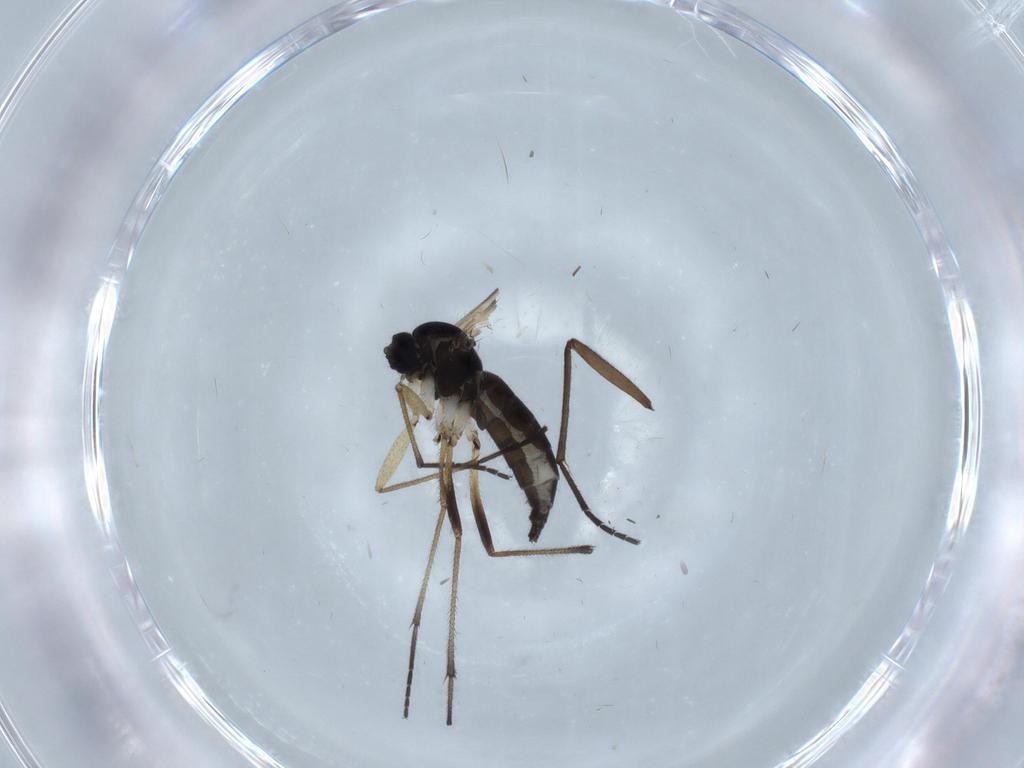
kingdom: Animalia
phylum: Arthropoda
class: Insecta
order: Diptera
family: Sciaridae
